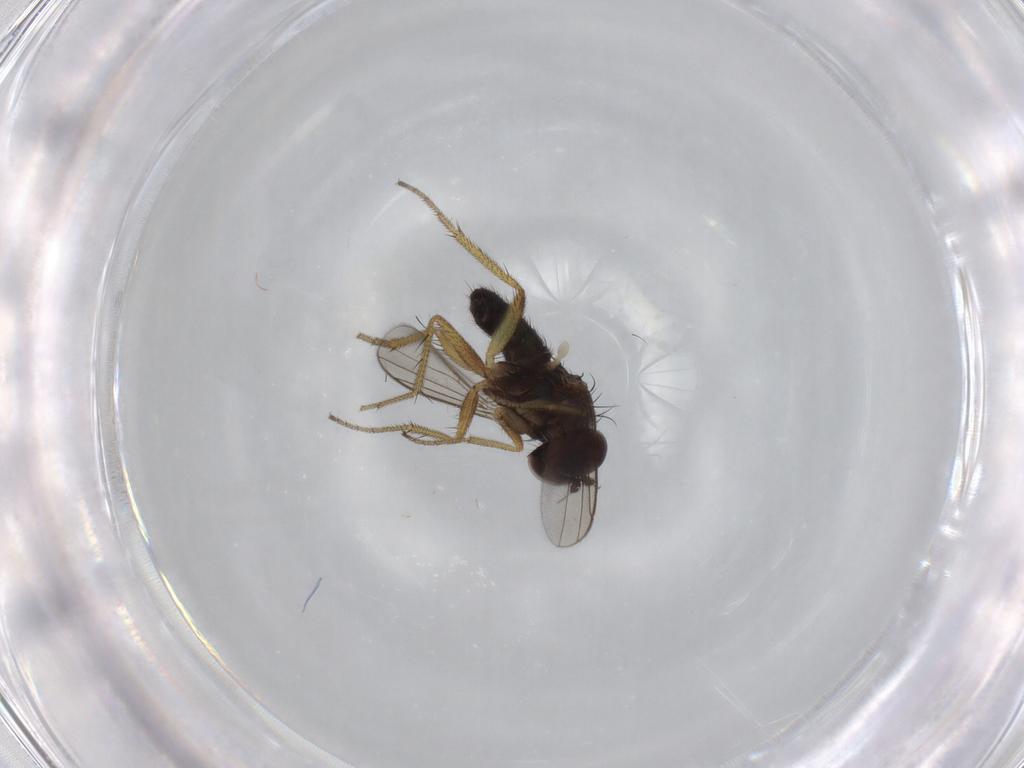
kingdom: Animalia
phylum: Arthropoda
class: Insecta
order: Diptera
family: Dolichopodidae
